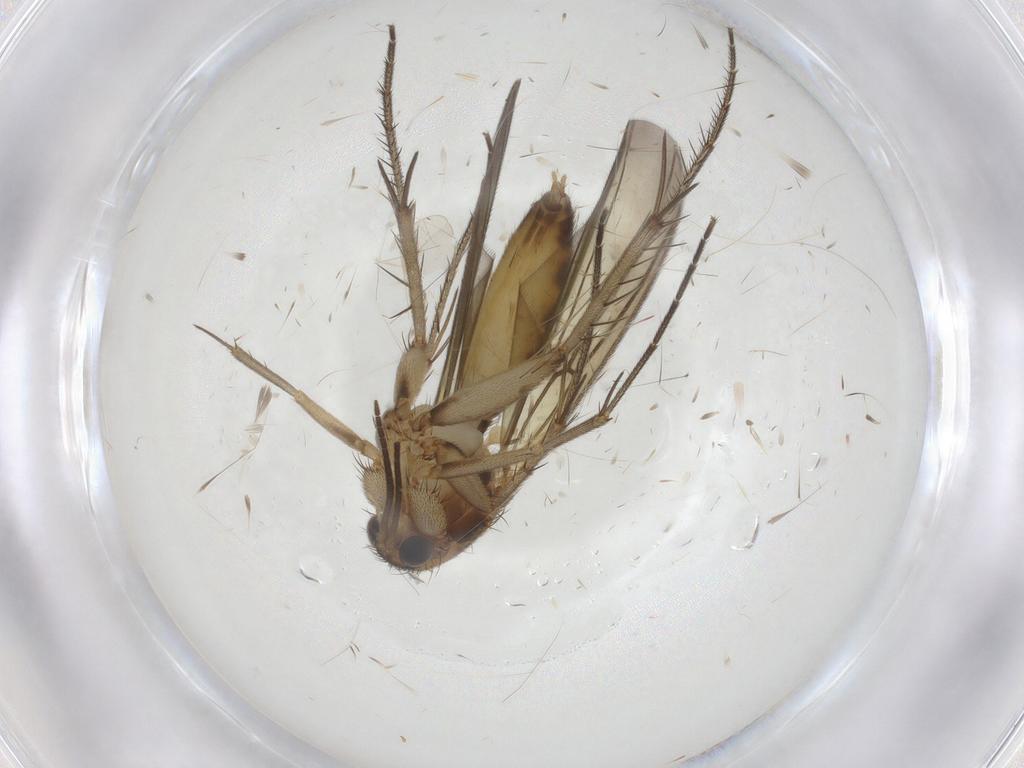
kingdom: Animalia
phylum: Arthropoda
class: Insecta
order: Diptera
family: Mycetophilidae
